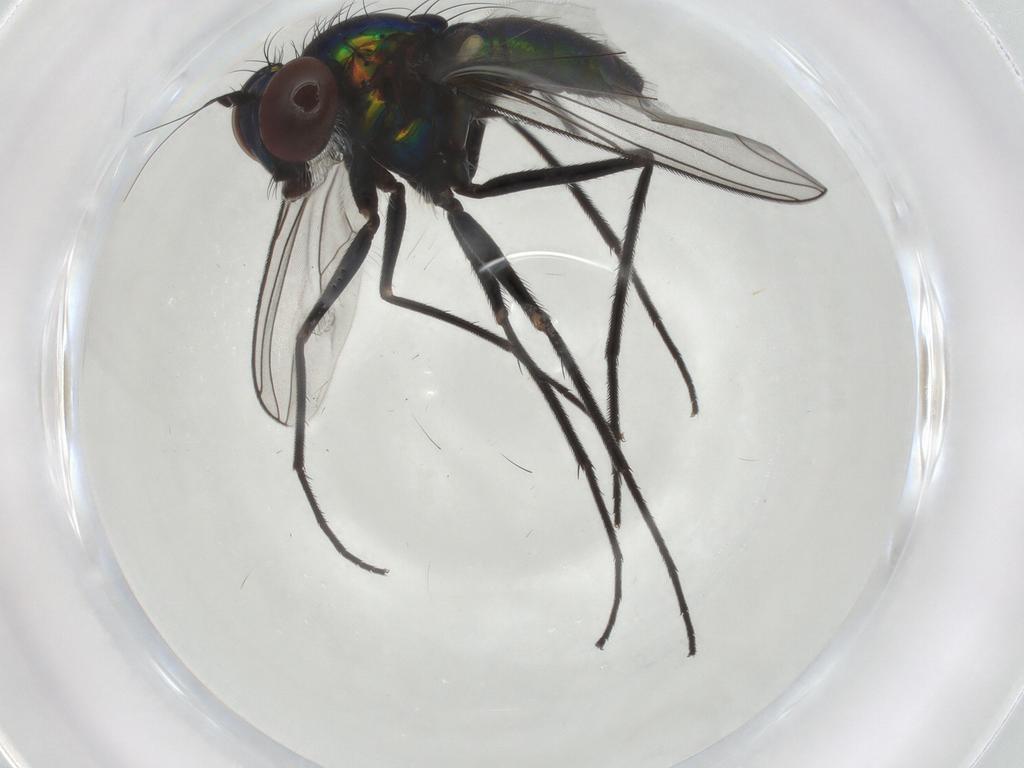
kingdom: Animalia
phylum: Arthropoda
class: Insecta
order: Diptera
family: Dolichopodidae
